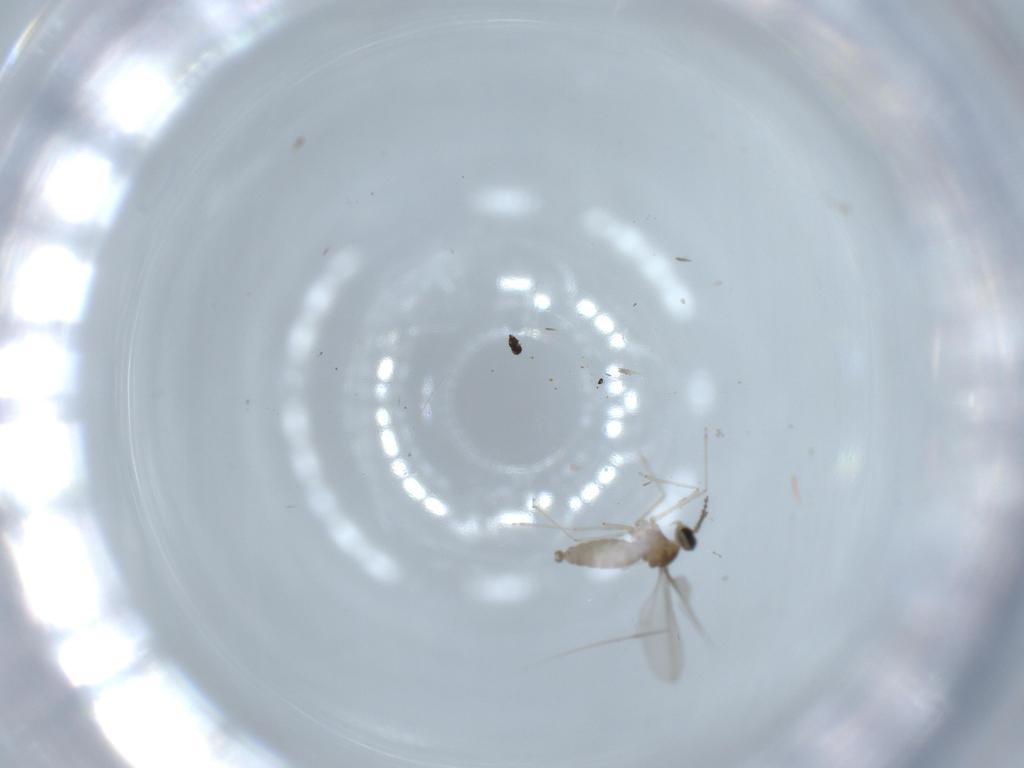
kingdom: Animalia
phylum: Arthropoda
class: Insecta
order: Diptera
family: Cecidomyiidae
